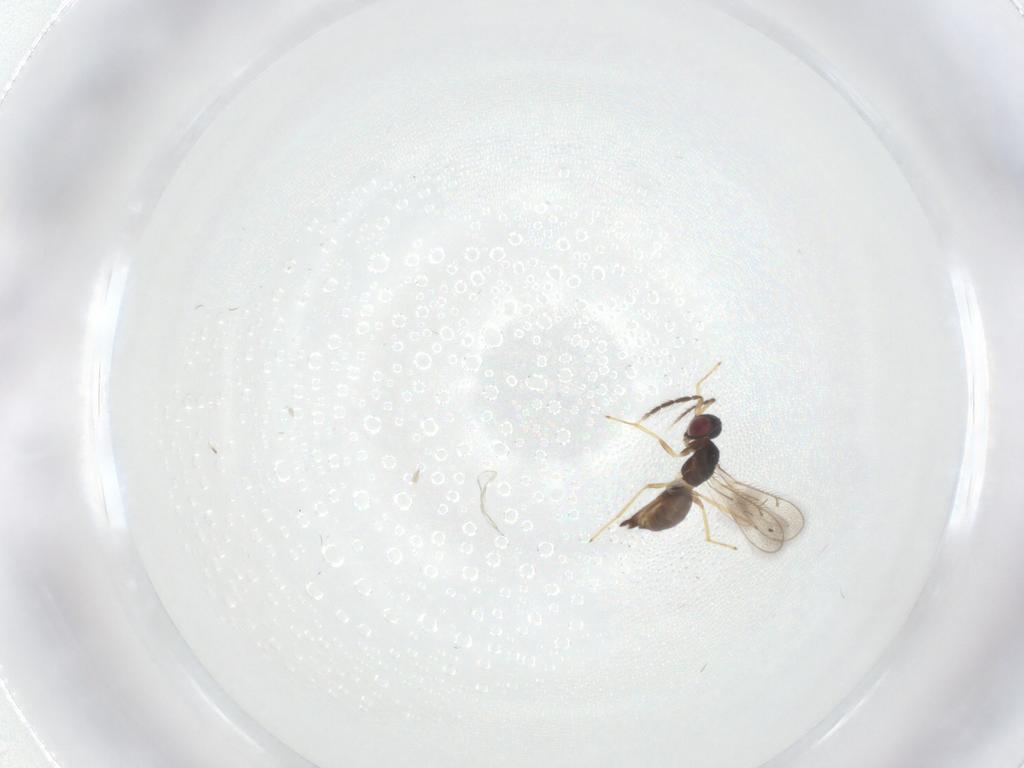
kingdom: Animalia
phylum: Arthropoda
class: Insecta
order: Hymenoptera
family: Eulophidae
